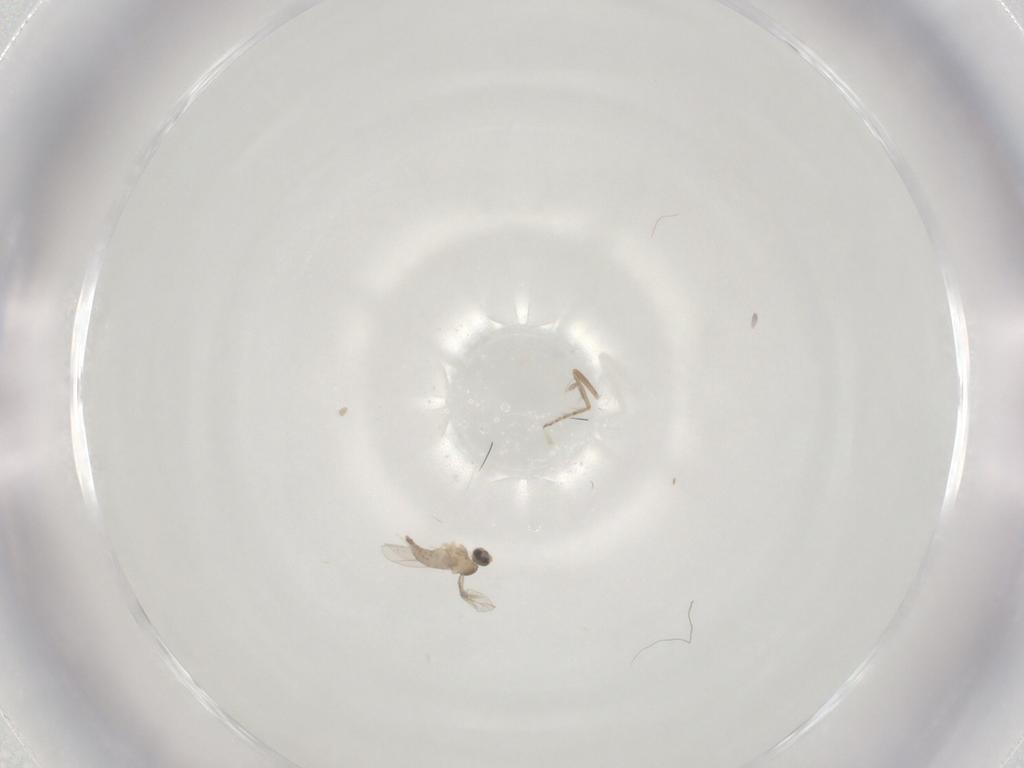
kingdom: Animalia
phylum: Arthropoda
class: Insecta
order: Diptera
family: Cecidomyiidae
